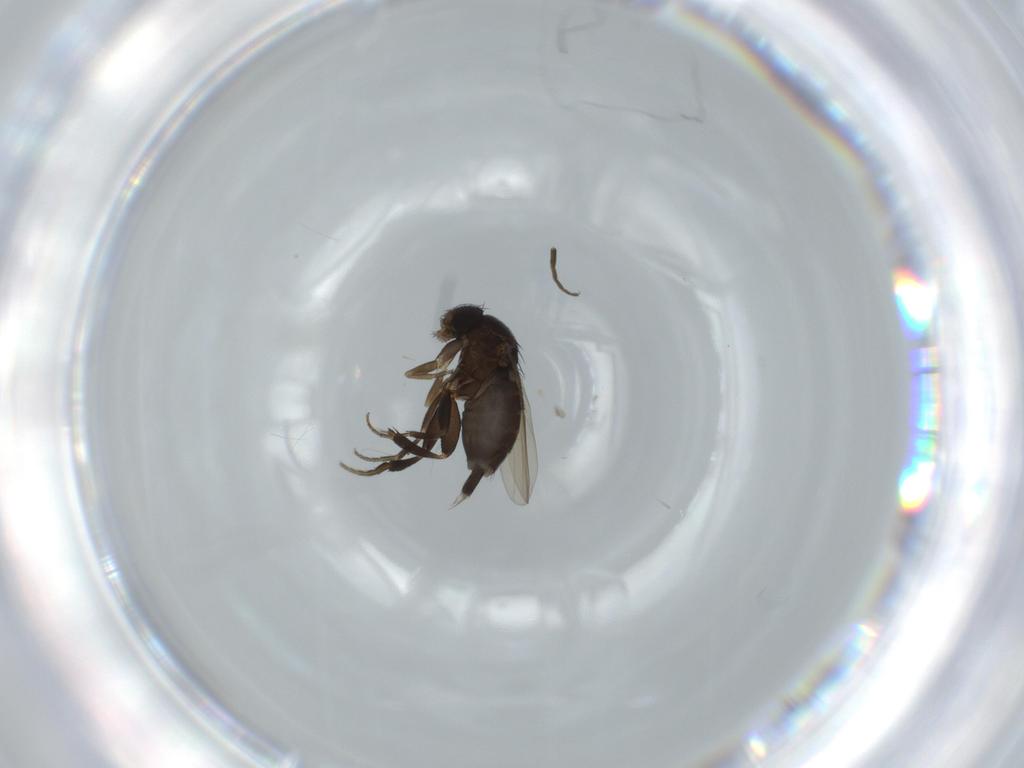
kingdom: Animalia
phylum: Arthropoda
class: Insecta
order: Diptera
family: Phoridae
